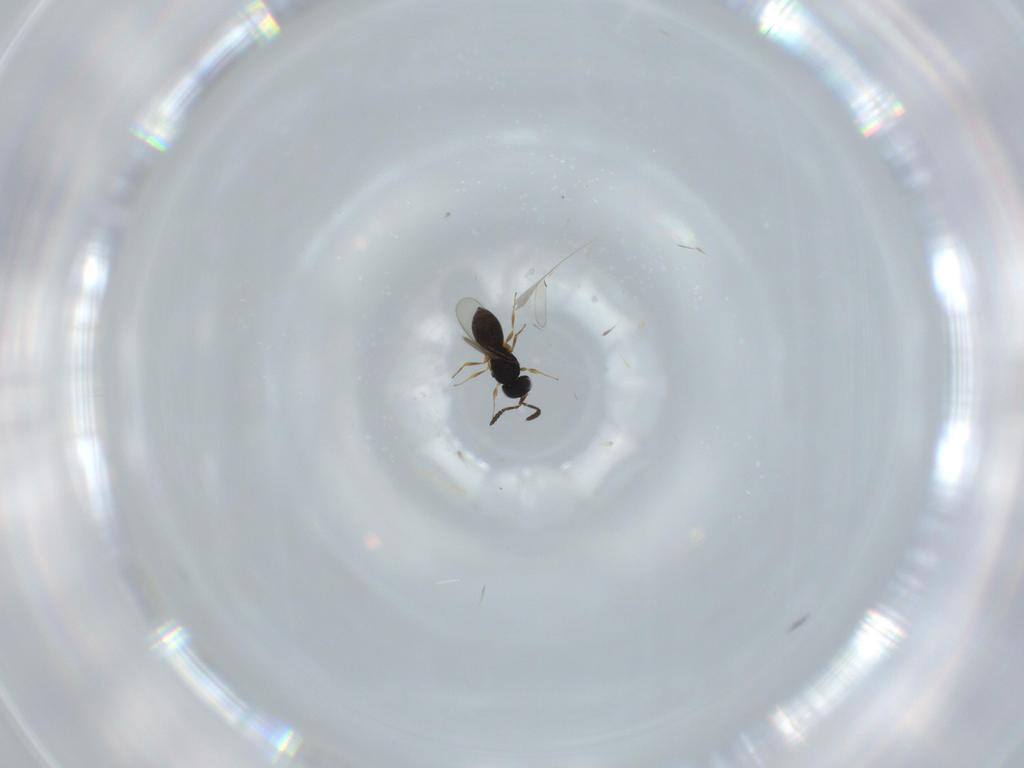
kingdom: Animalia
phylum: Arthropoda
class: Insecta
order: Hymenoptera
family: Scelionidae
